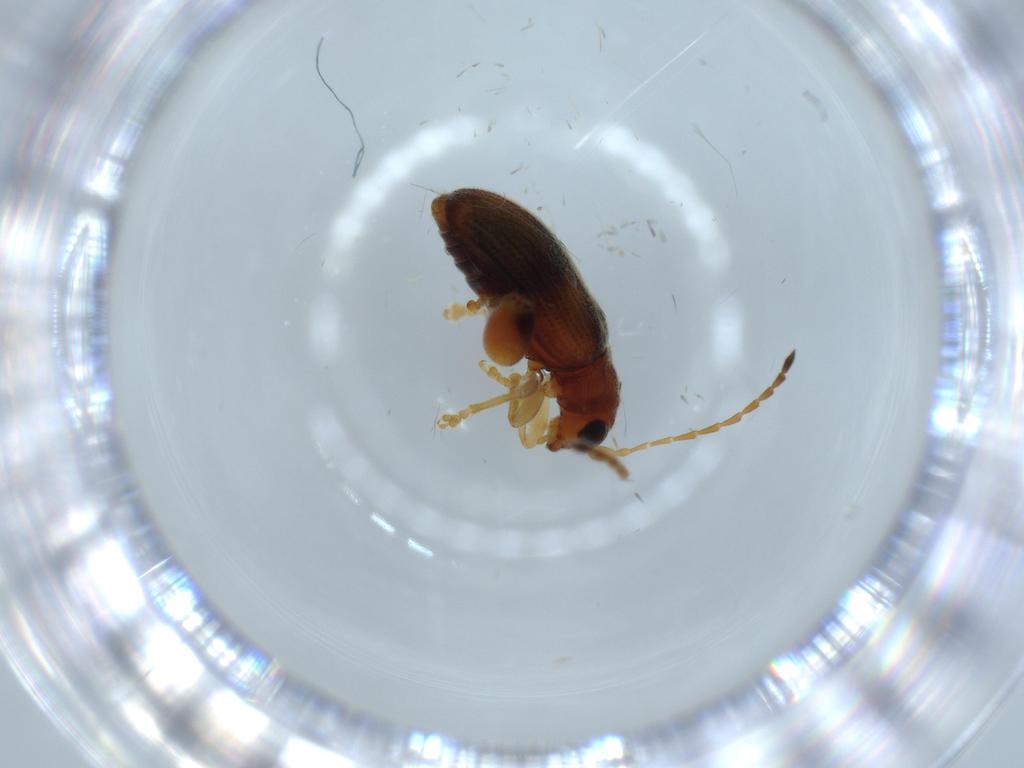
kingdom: Animalia
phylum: Arthropoda
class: Insecta
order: Coleoptera
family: Chrysomelidae
